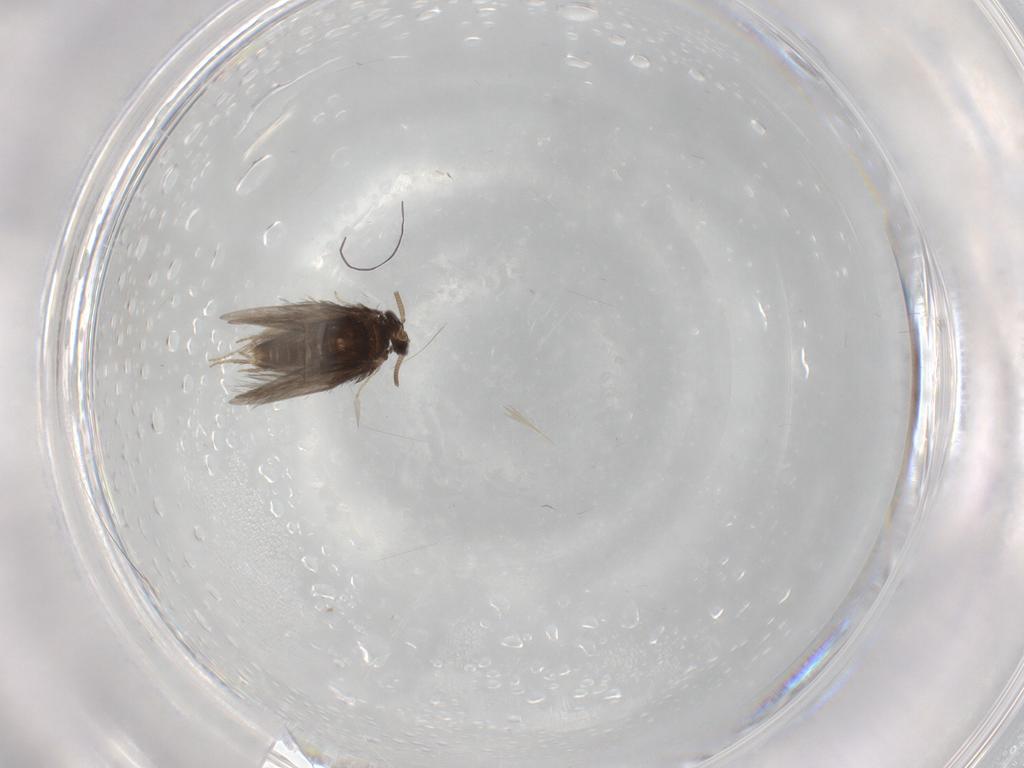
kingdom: Animalia
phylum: Arthropoda
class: Insecta
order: Trichoptera
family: Hydroptilidae
